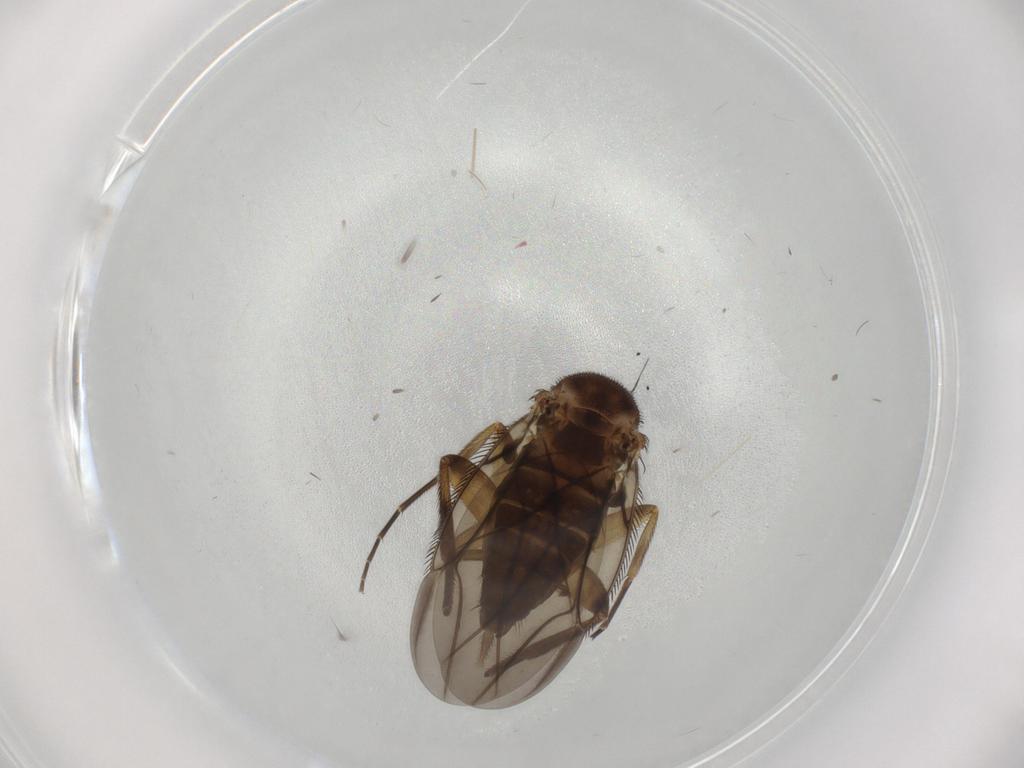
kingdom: Animalia
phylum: Arthropoda
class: Insecta
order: Diptera
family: Phoridae
